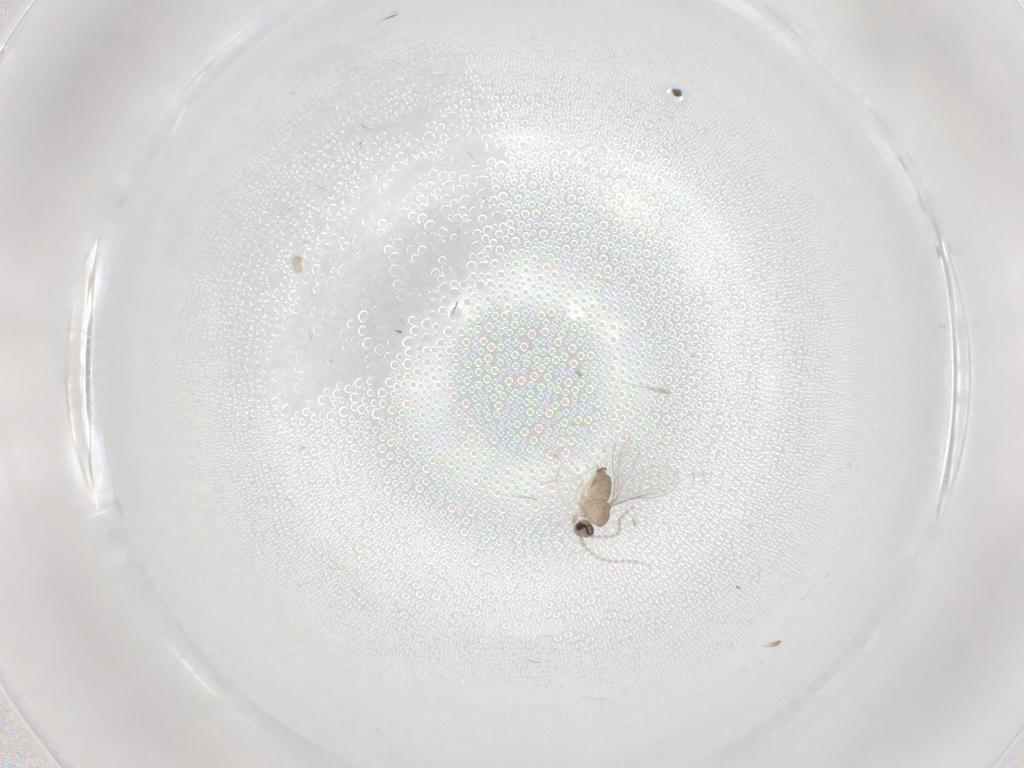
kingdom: Animalia
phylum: Arthropoda
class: Insecta
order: Diptera
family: Cecidomyiidae
